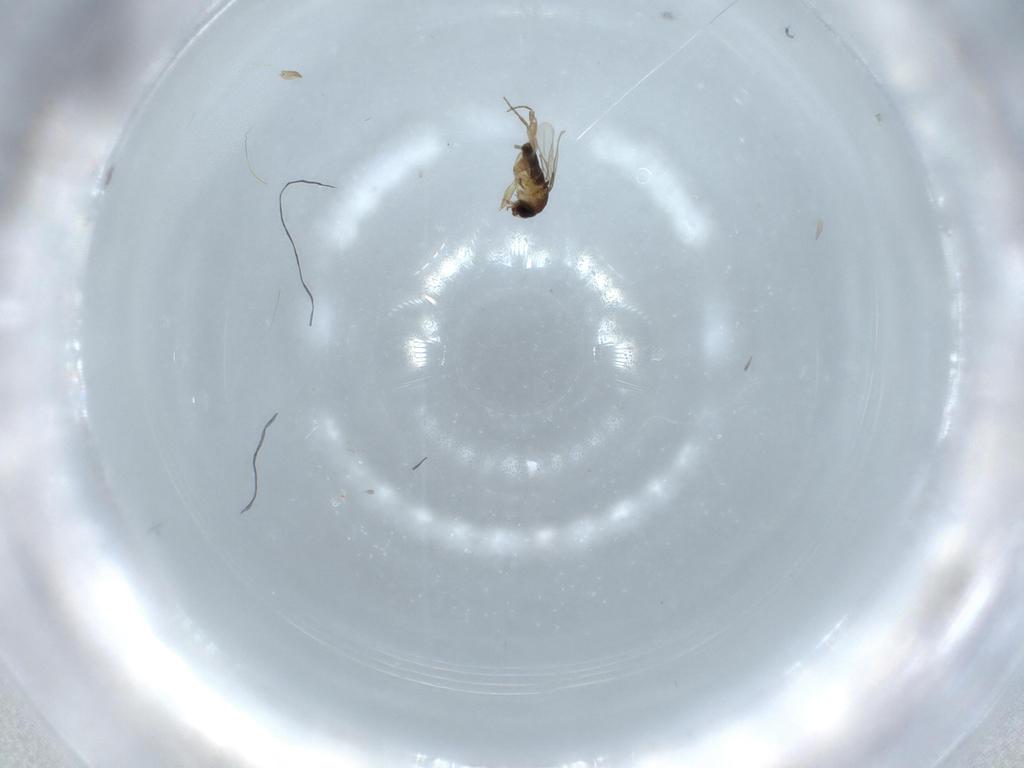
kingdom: Animalia
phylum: Arthropoda
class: Insecta
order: Diptera
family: Phoridae
